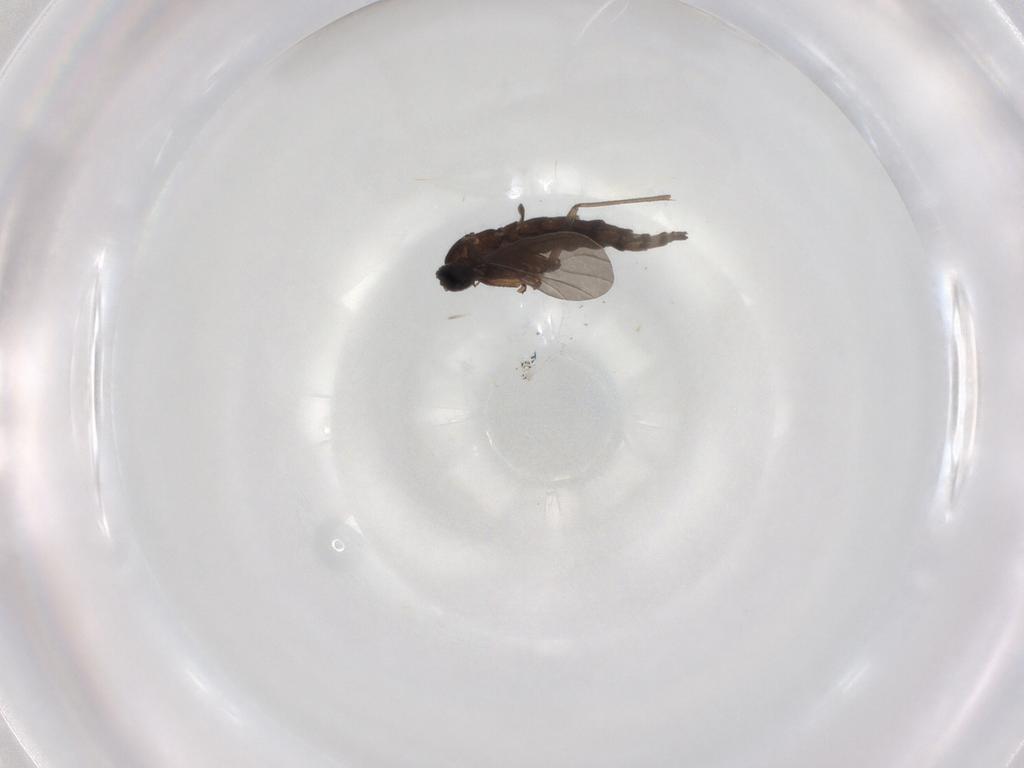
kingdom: Animalia
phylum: Arthropoda
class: Insecta
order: Diptera
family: Sciaridae
